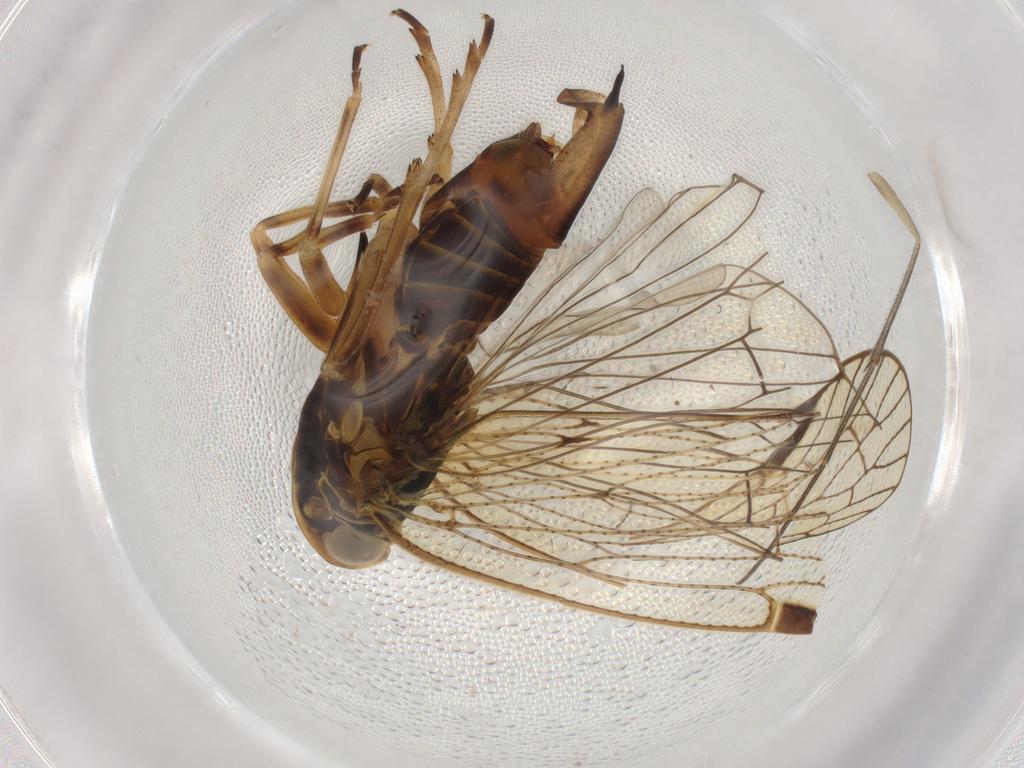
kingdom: Animalia
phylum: Arthropoda
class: Insecta
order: Hemiptera
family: Cixiidae
